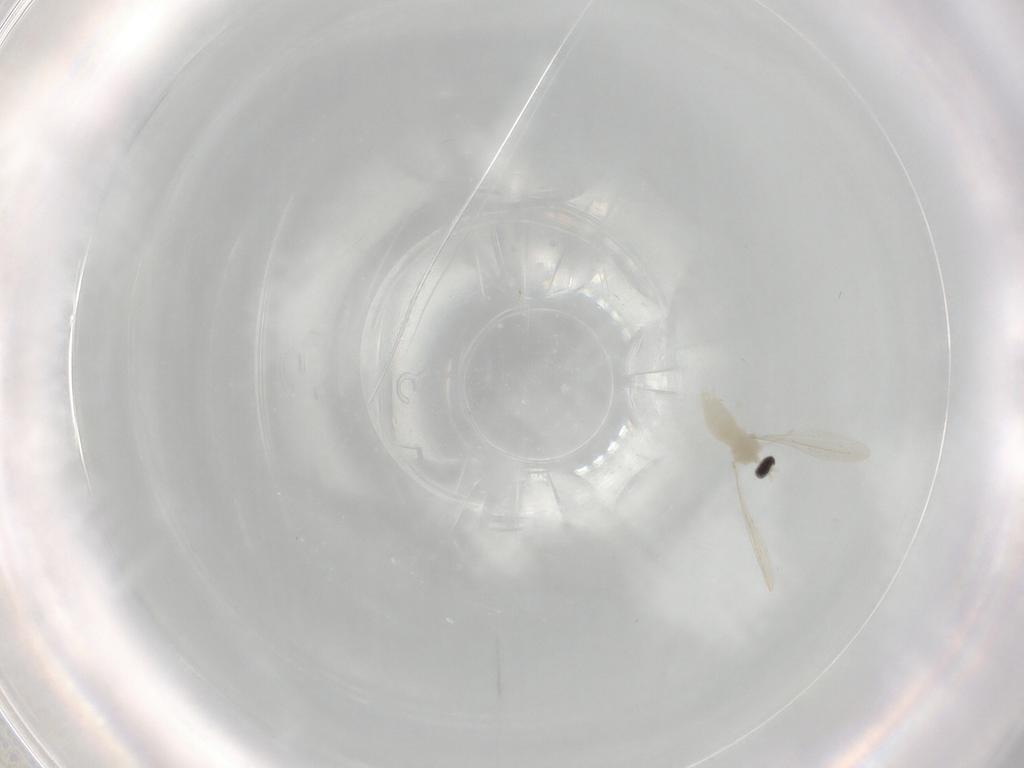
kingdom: Animalia
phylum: Arthropoda
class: Insecta
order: Diptera
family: Cecidomyiidae
